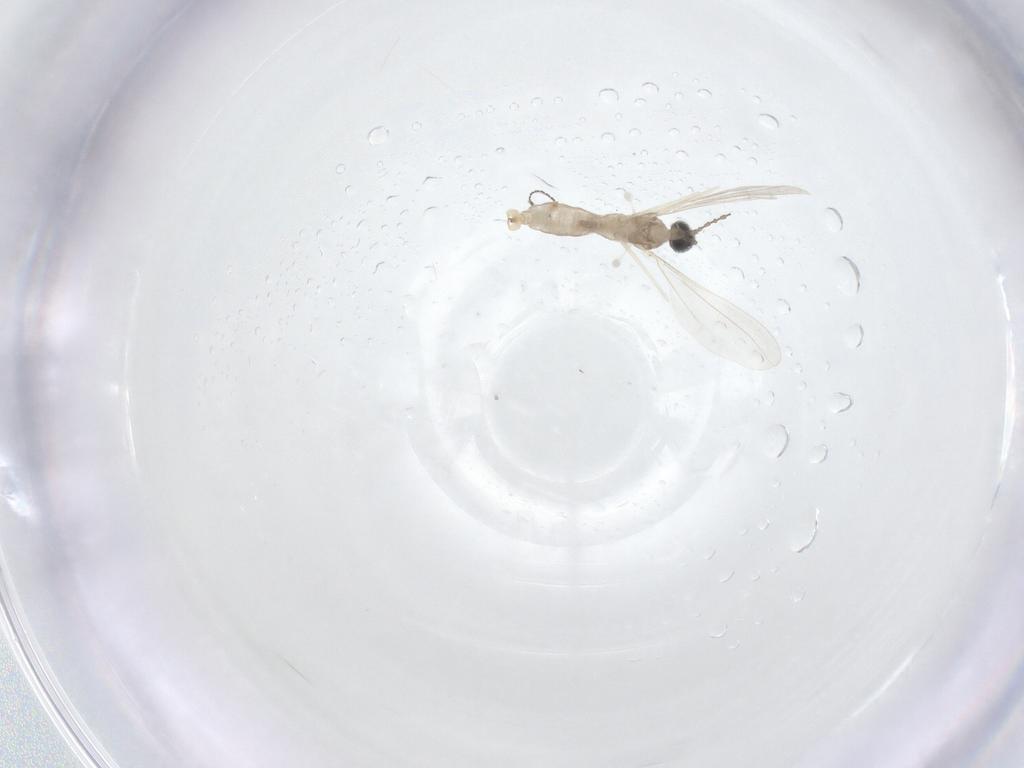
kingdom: Animalia
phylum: Arthropoda
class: Insecta
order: Diptera
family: Cecidomyiidae
